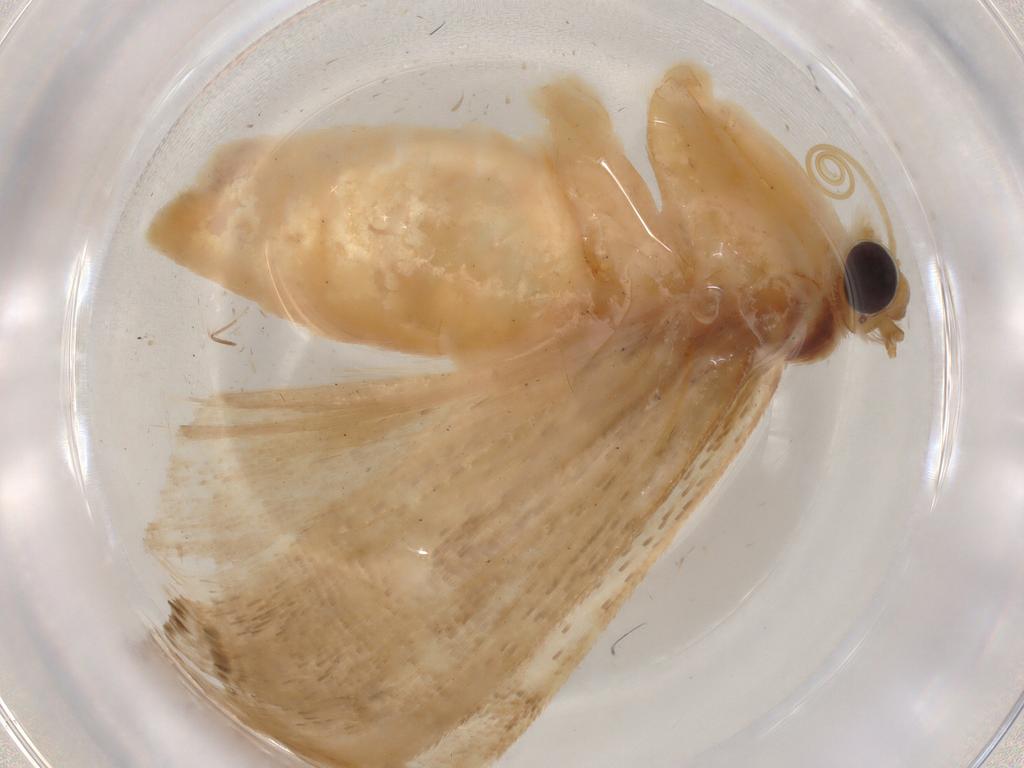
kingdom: Animalia
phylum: Arthropoda
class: Insecta
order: Lepidoptera
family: Crambidae
